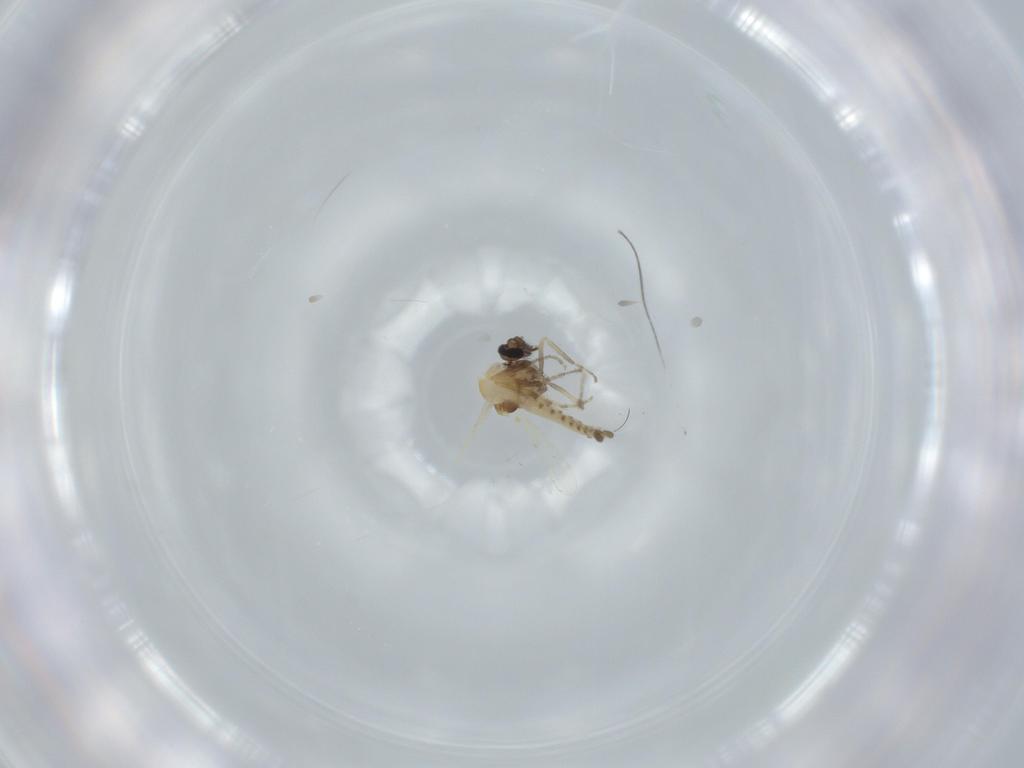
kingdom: Animalia
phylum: Arthropoda
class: Insecta
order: Diptera
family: Ceratopogonidae
